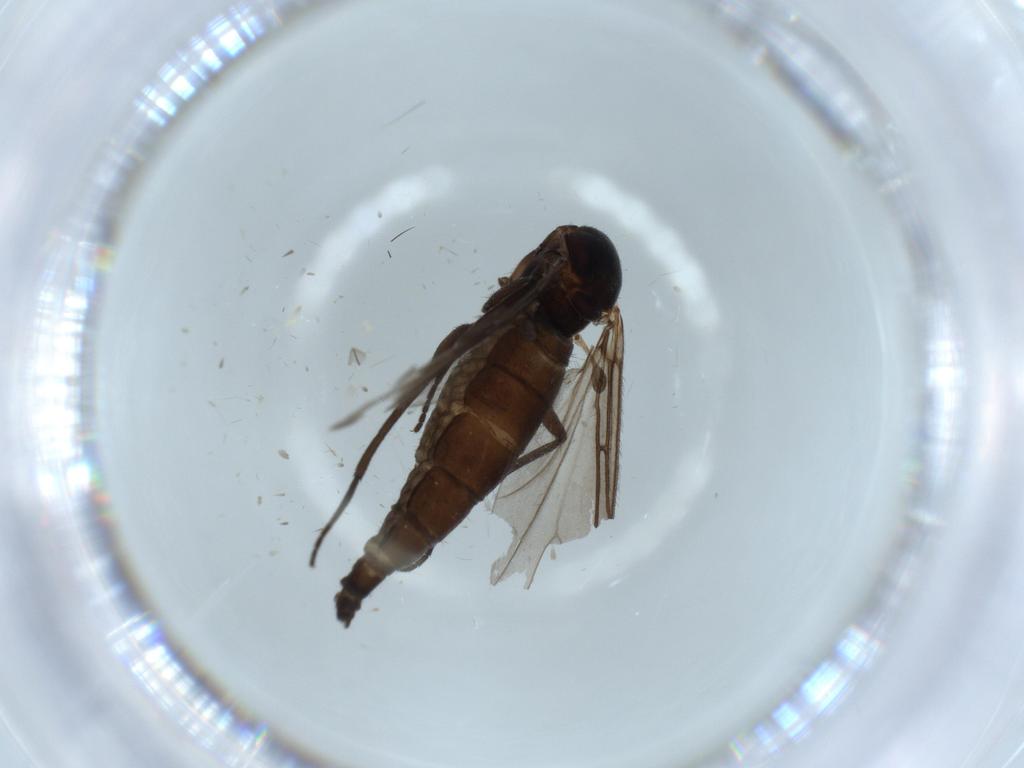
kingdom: Animalia
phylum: Arthropoda
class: Insecta
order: Diptera
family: Sciaridae
